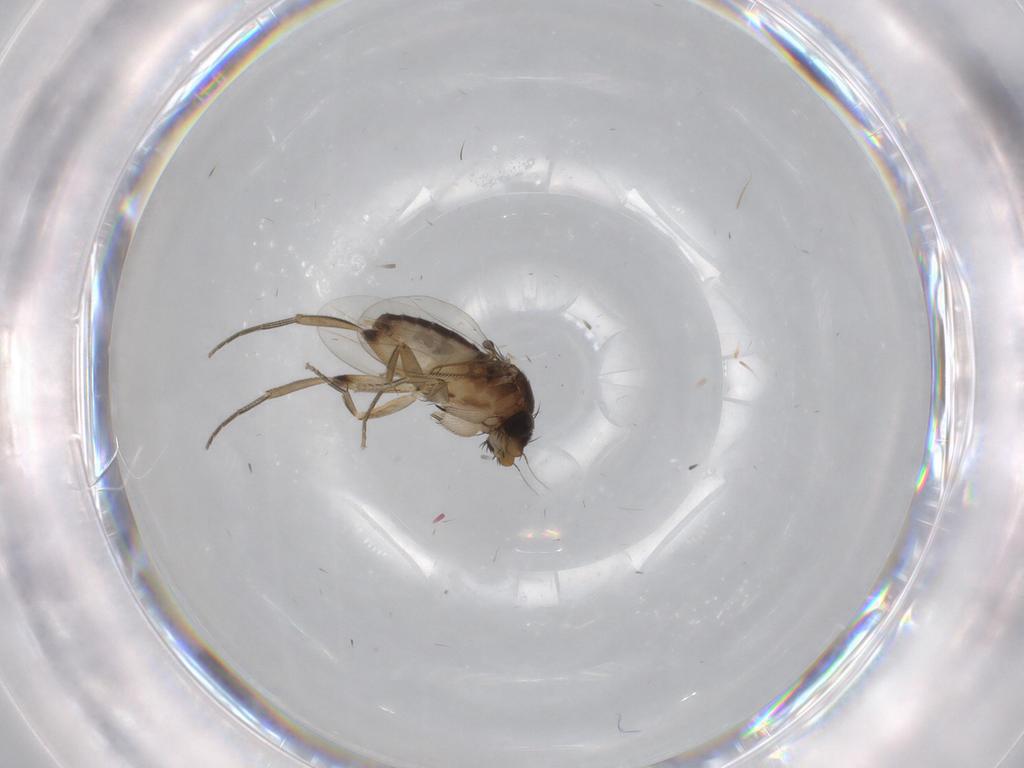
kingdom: Animalia
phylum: Arthropoda
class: Insecta
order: Diptera
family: Phoridae
